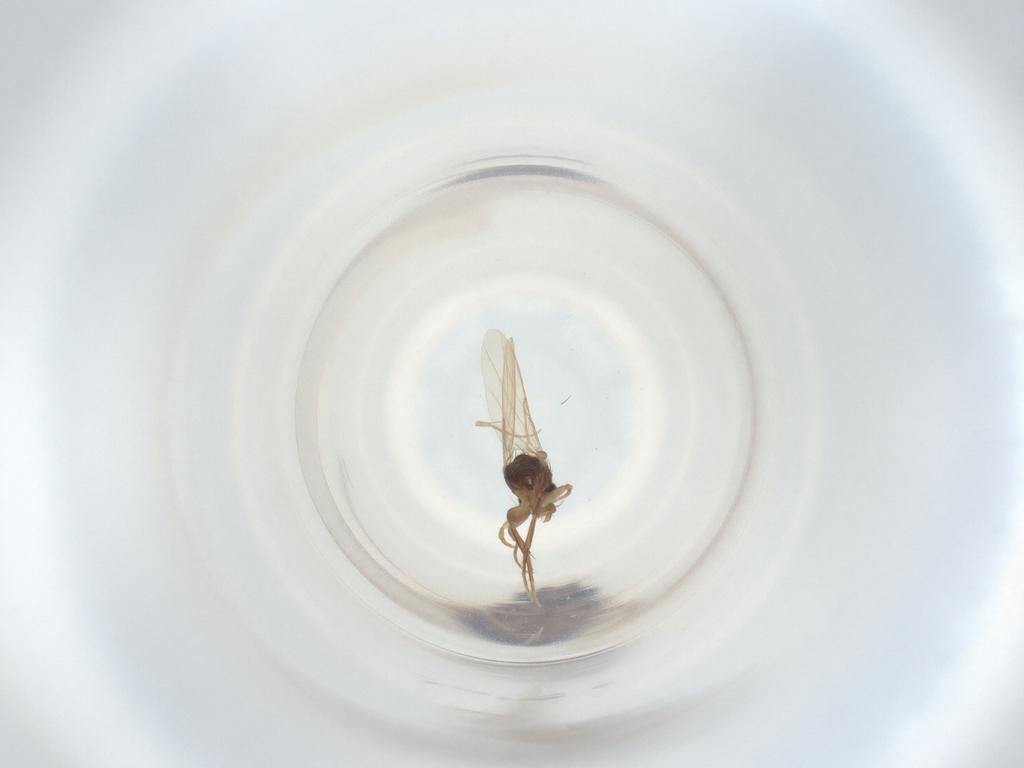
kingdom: Animalia
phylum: Arthropoda
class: Insecta
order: Diptera
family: Phoridae
